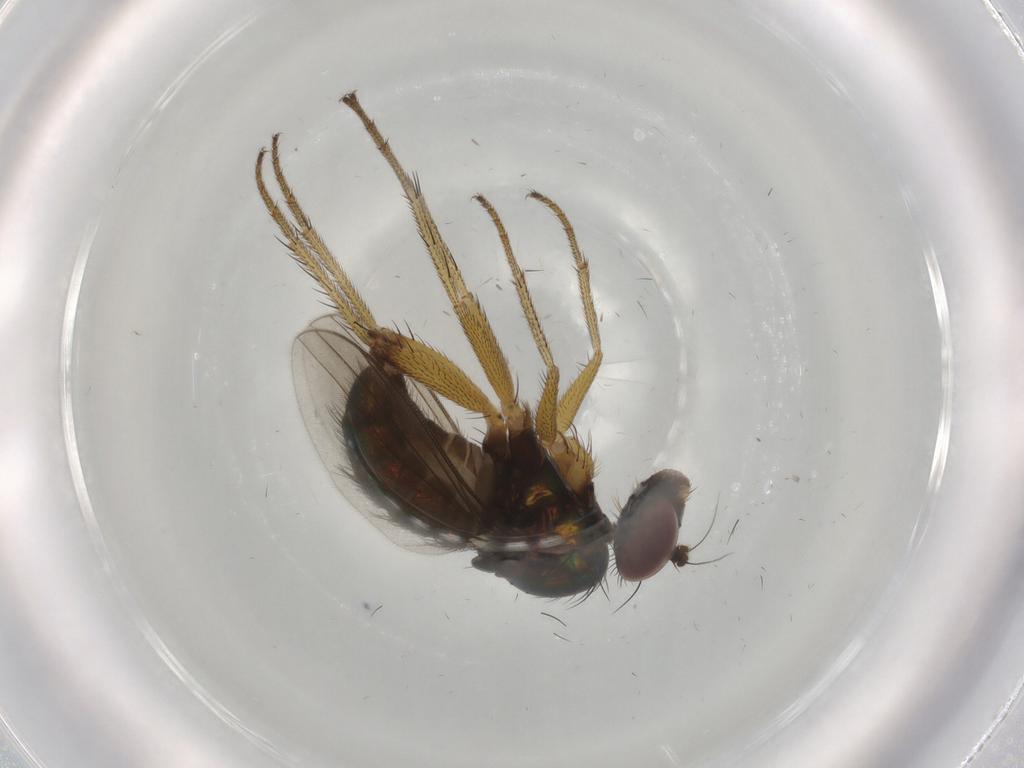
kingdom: Animalia
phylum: Arthropoda
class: Insecta
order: Diptera
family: Dolichopodidae
